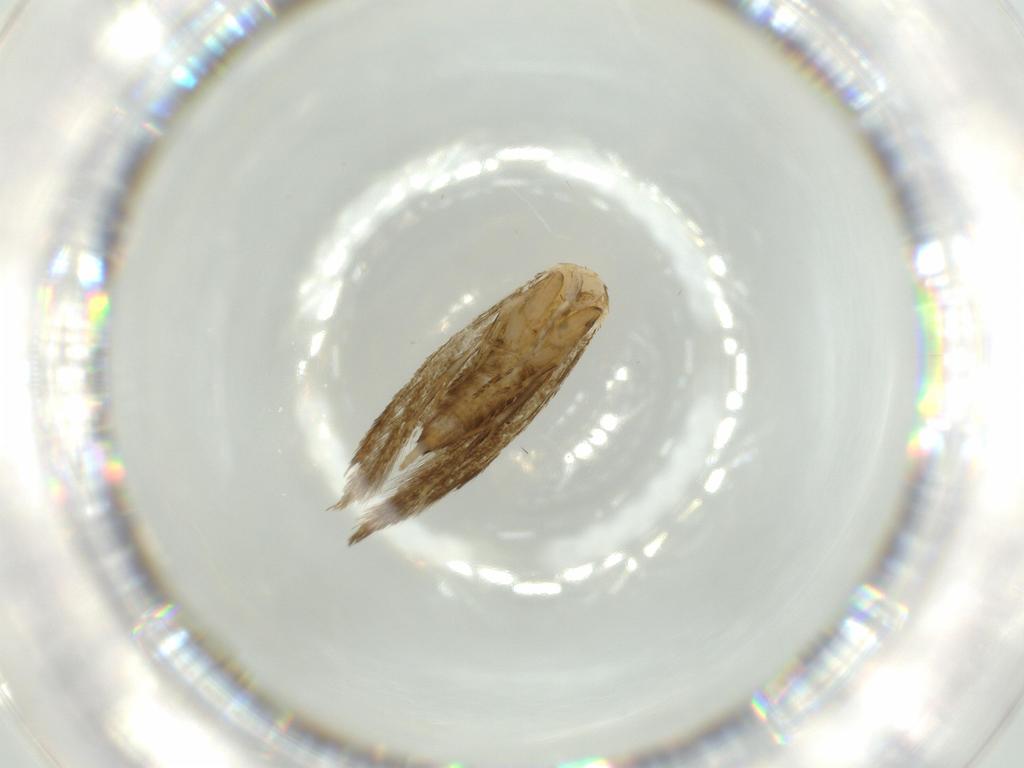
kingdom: Animalia
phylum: Arthropoda
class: Insecta
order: Lepidoptera
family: Tineidae
